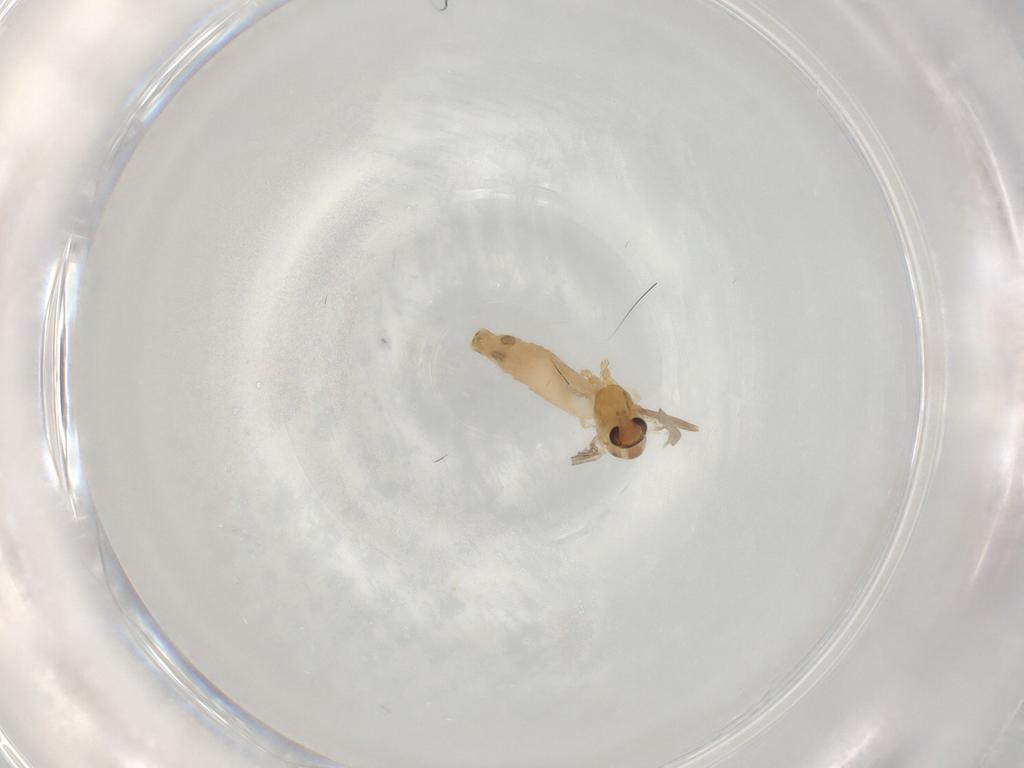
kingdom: Animalia
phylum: Arthropoda
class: Insecta
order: Diptera
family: Chironomidae
